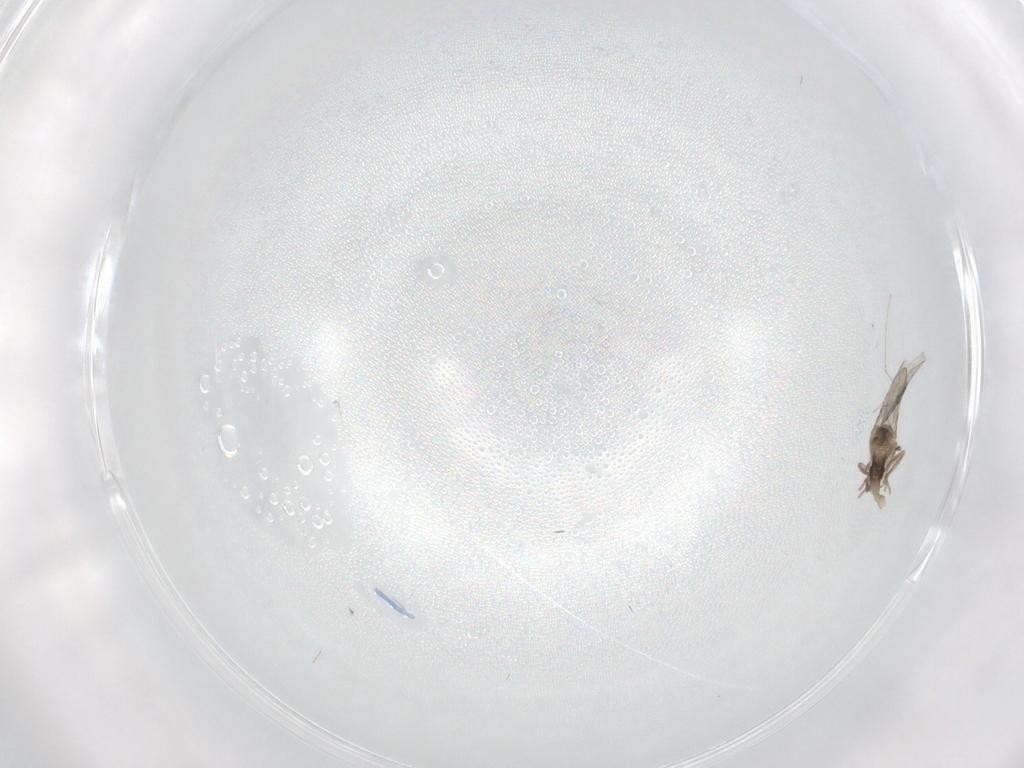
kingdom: Animalia
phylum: Arthropoda
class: Insecta
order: Diptera
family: Cecidomyiidae
